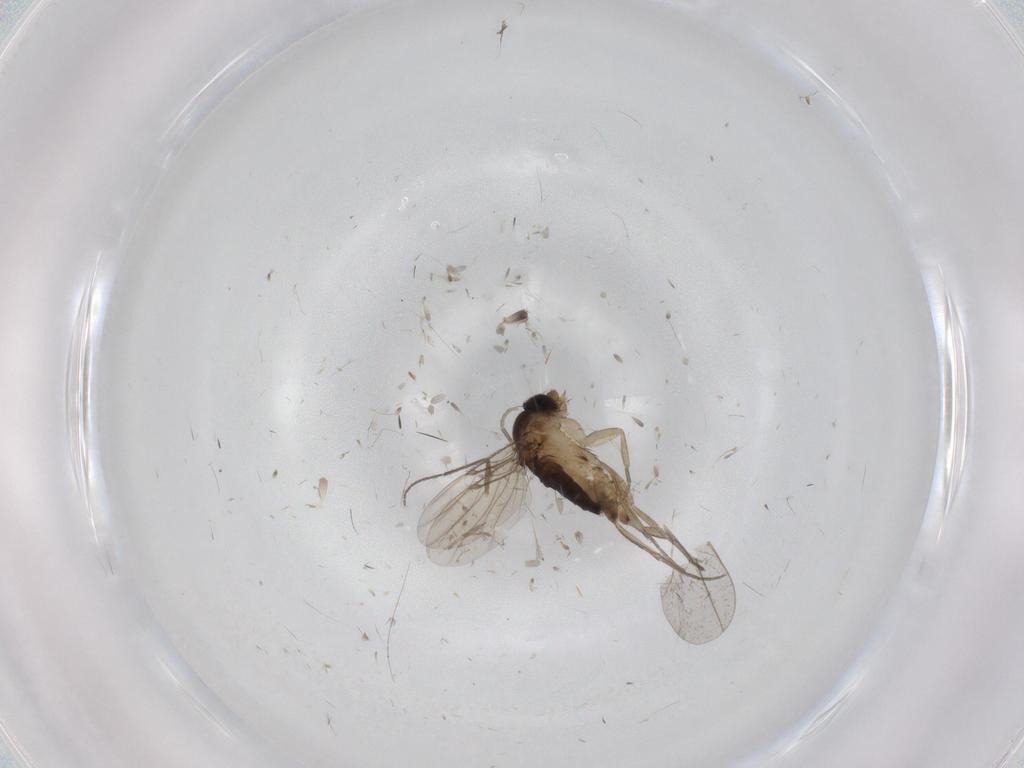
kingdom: Animalia
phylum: Arthropoda
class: Insecta
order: Diptera
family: Phoridae
